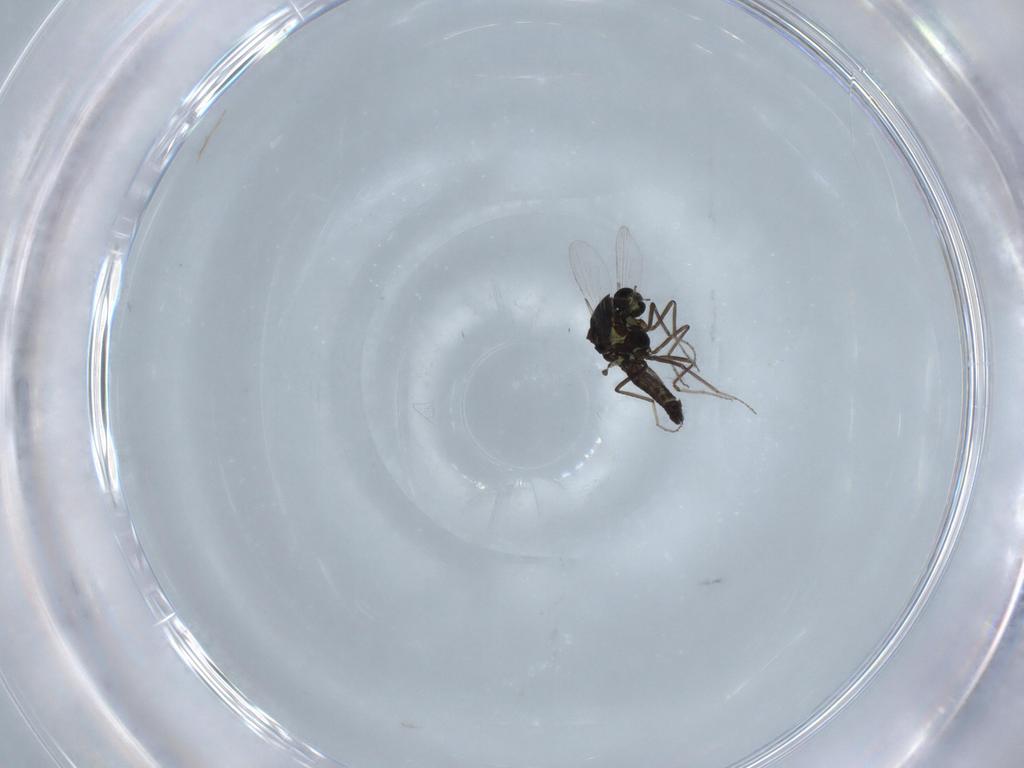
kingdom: Animalia
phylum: Arthropoda
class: Insecta
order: Diptera
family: Ceratopogonidae
